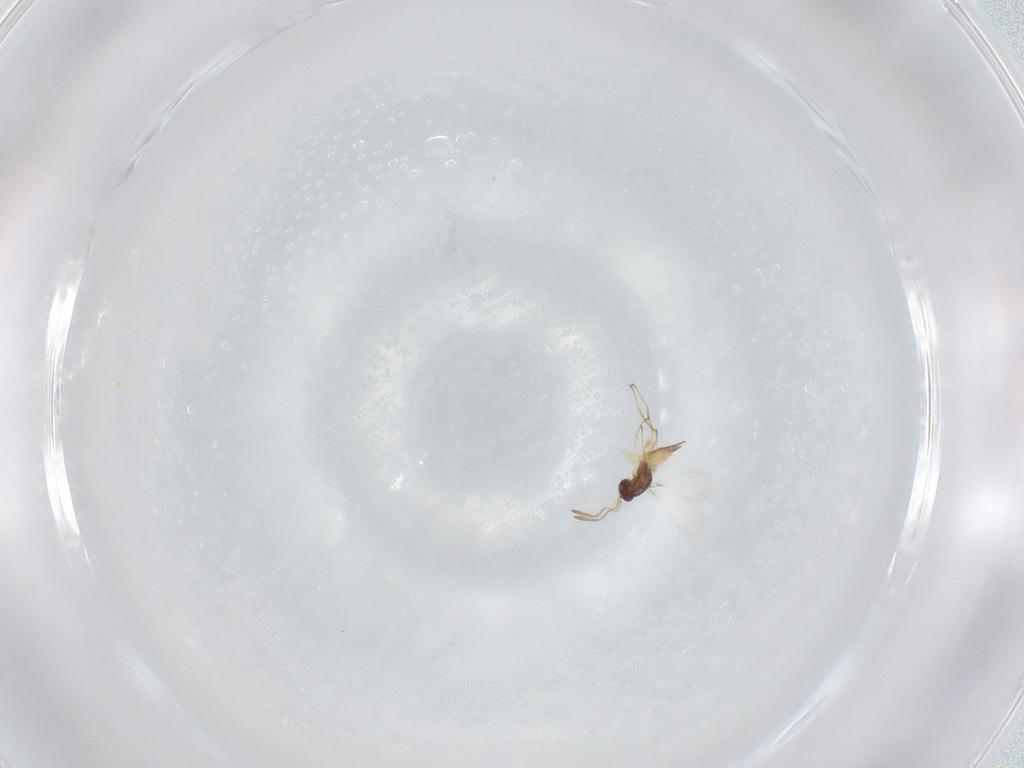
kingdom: Animalia
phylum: Arthropoda
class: Insecta
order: Hymenoptera
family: Mymaridae
